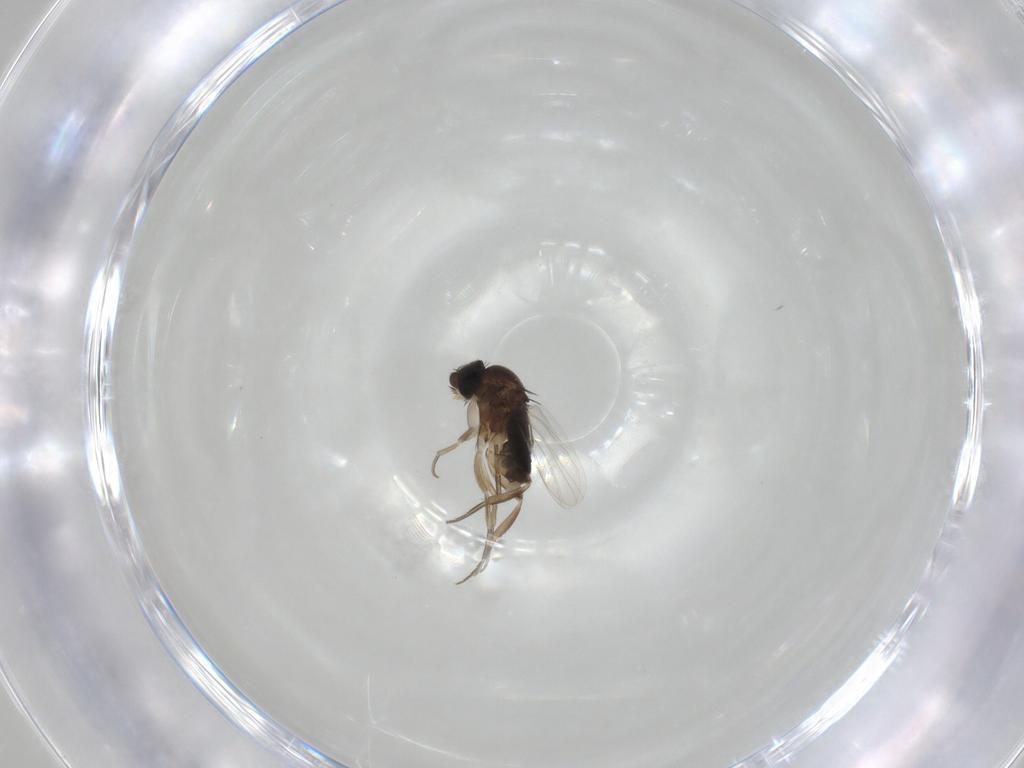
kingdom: Animalia
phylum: Arthropoda
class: Insecta
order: Diptera
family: Phoridae
